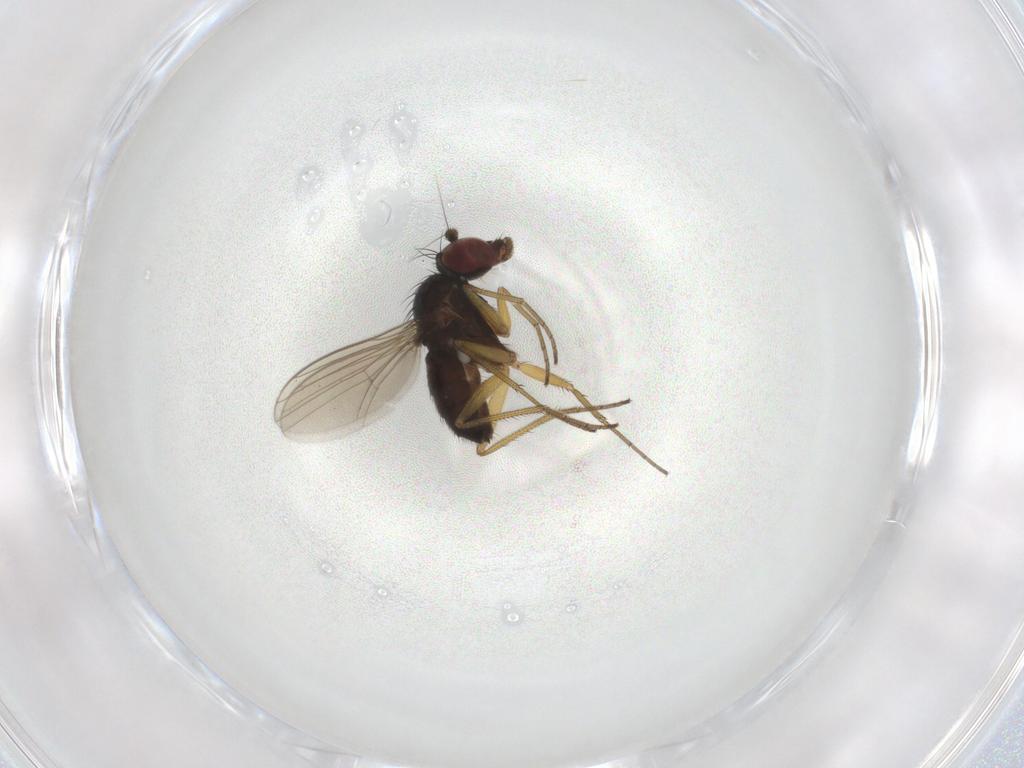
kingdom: Animalia
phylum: Arthropoda
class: Insecta
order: Diptera
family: Dolichopodidae
